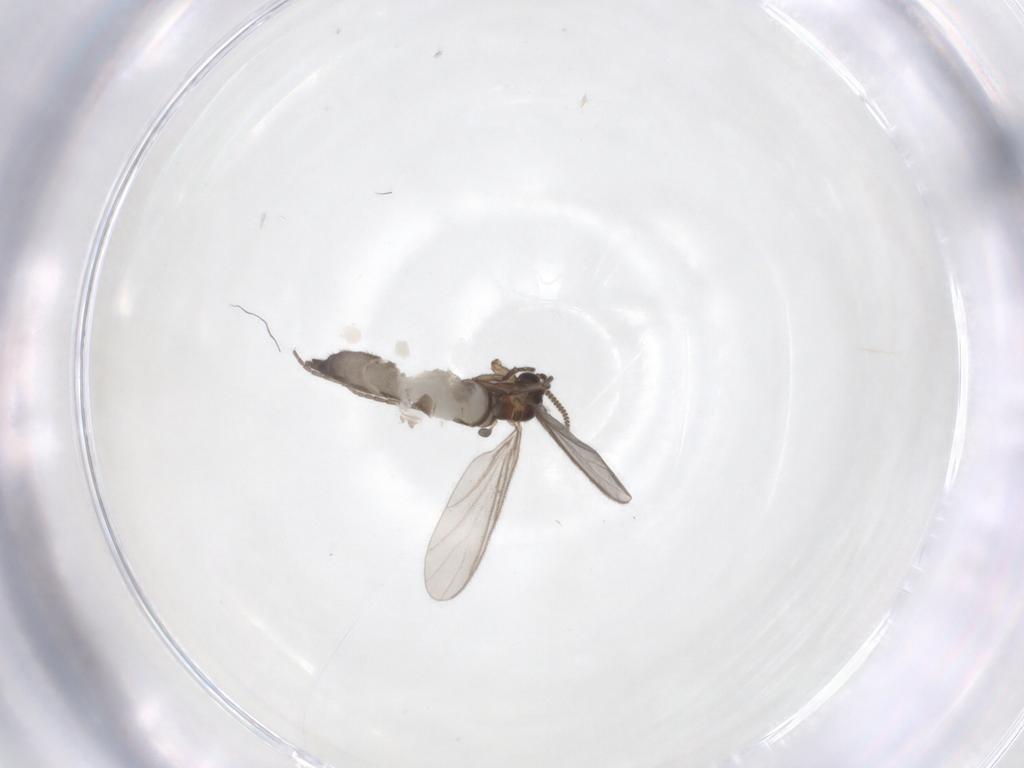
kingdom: Animalia
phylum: Arthropoda
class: Insecta
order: Diptera
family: Sciaridae
